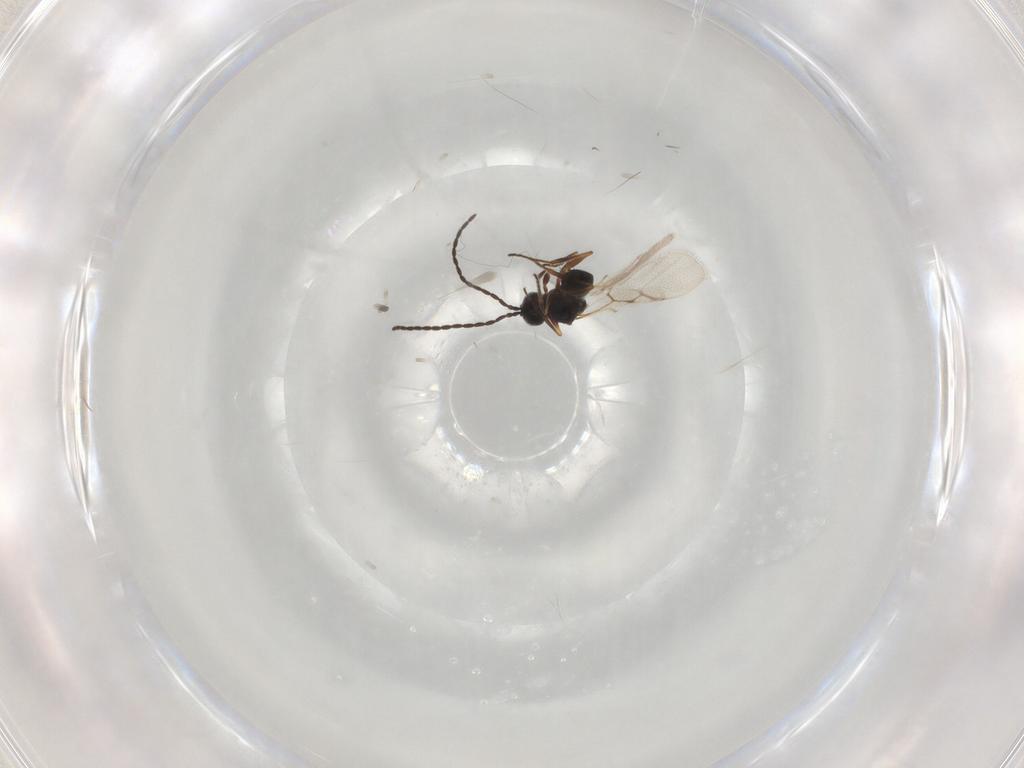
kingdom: Animalia
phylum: Arthropoda
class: Insecta
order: Hymenoptera
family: Figitidae
